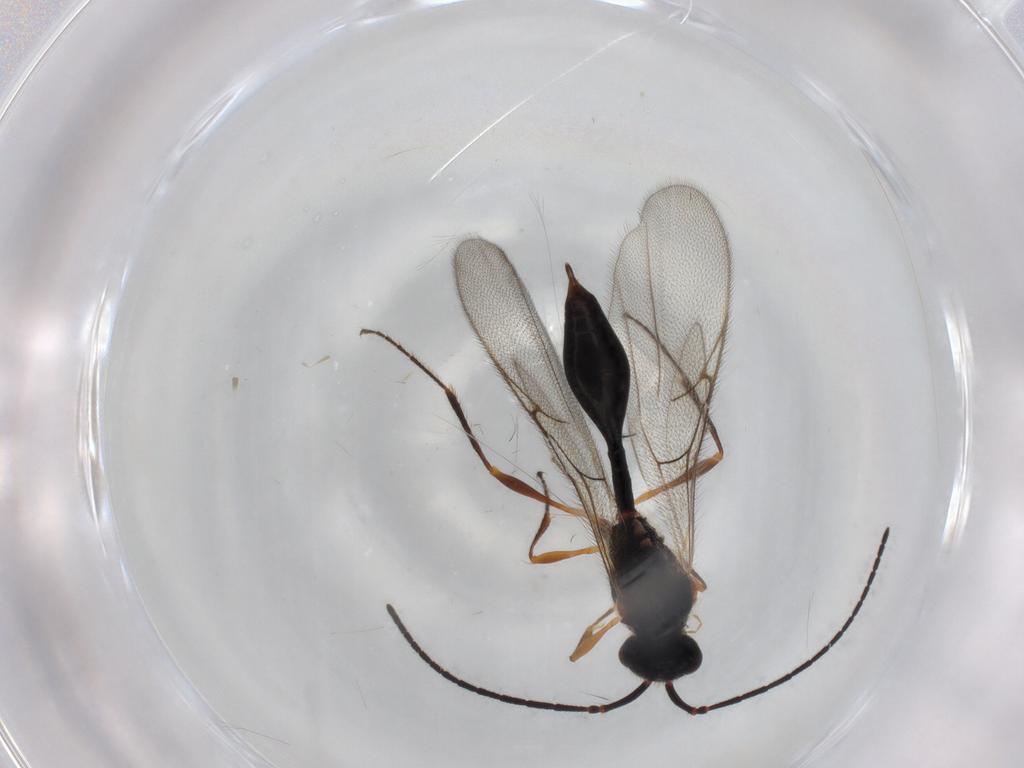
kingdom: Animalia
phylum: Arthropoda
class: Insecta
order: Hymenoptera
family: Diapriidae
